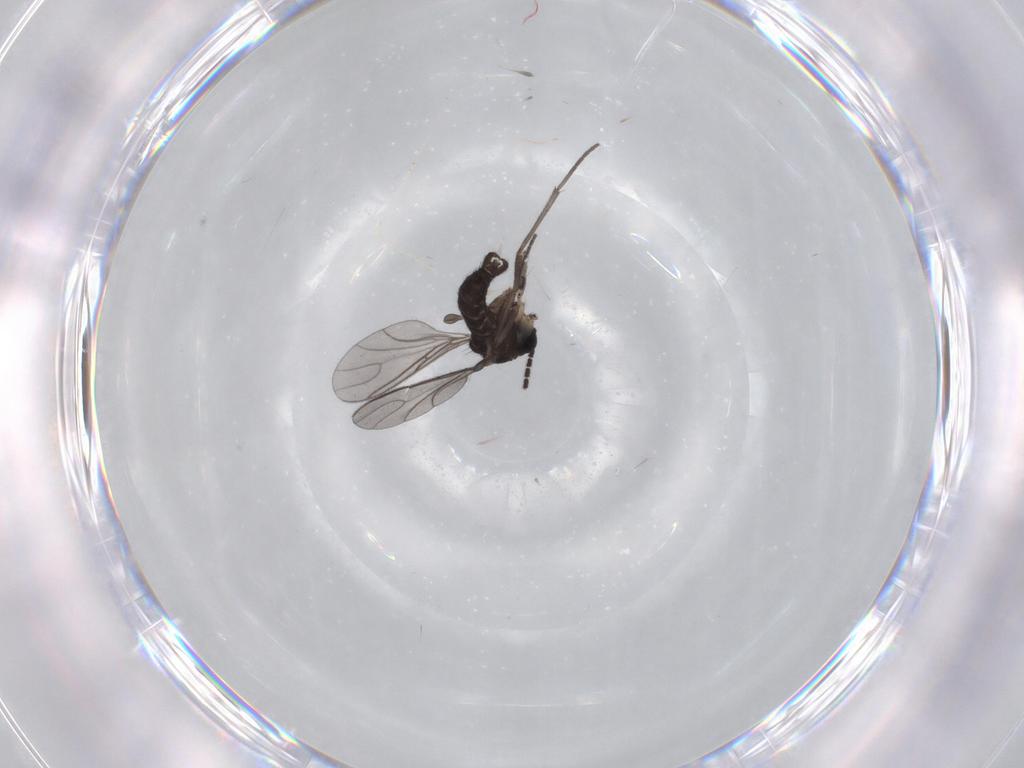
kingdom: Animalia
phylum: Arthropoda
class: Insecta
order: Diptera
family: Sciaridae
